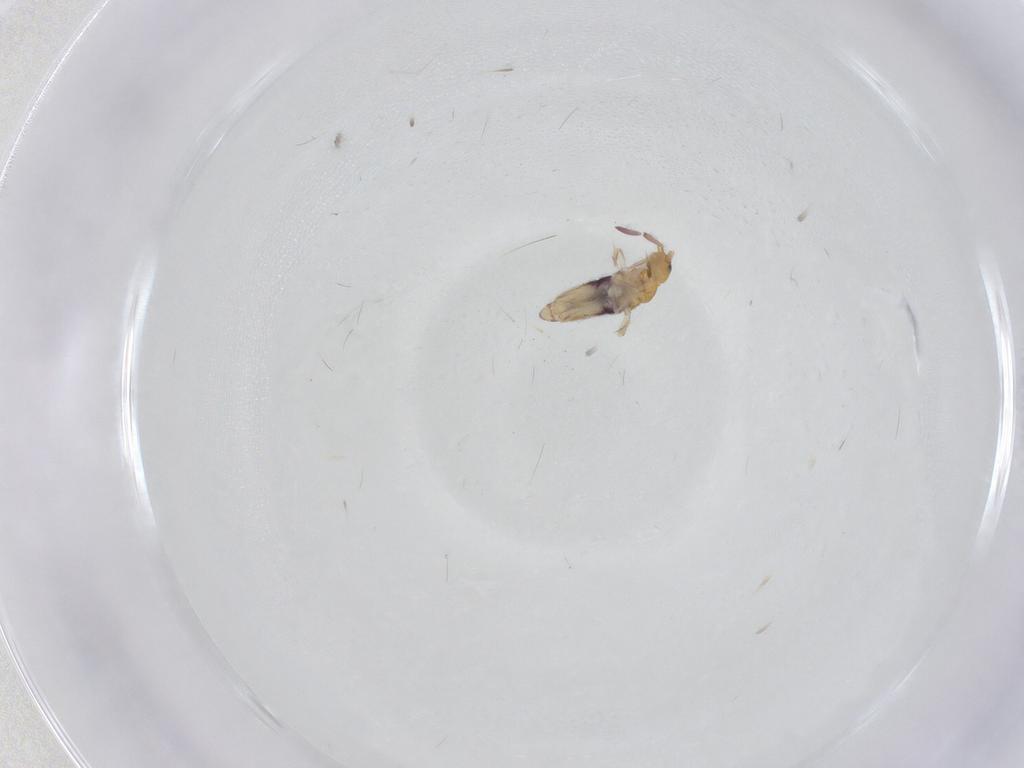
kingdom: Animalia
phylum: Arthropoda
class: Collembola
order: Entomobryomorpha
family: Entomobryidae
